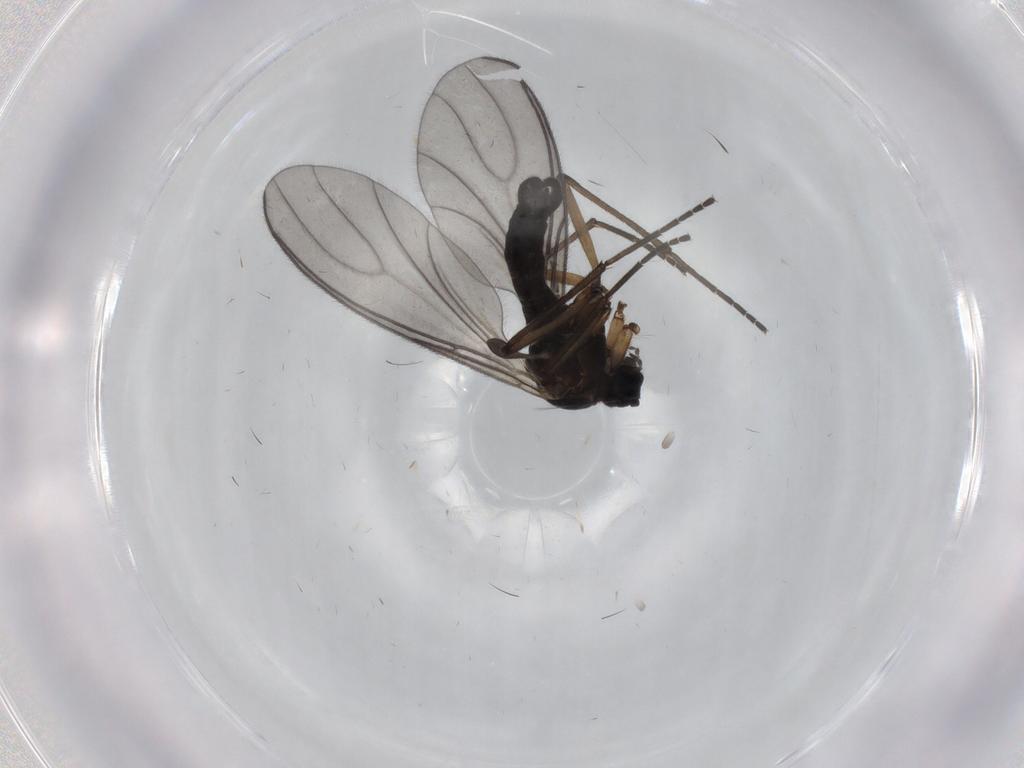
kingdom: Animalia
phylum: Arthropoda
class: Insecta
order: Diptera
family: Sciaridae
